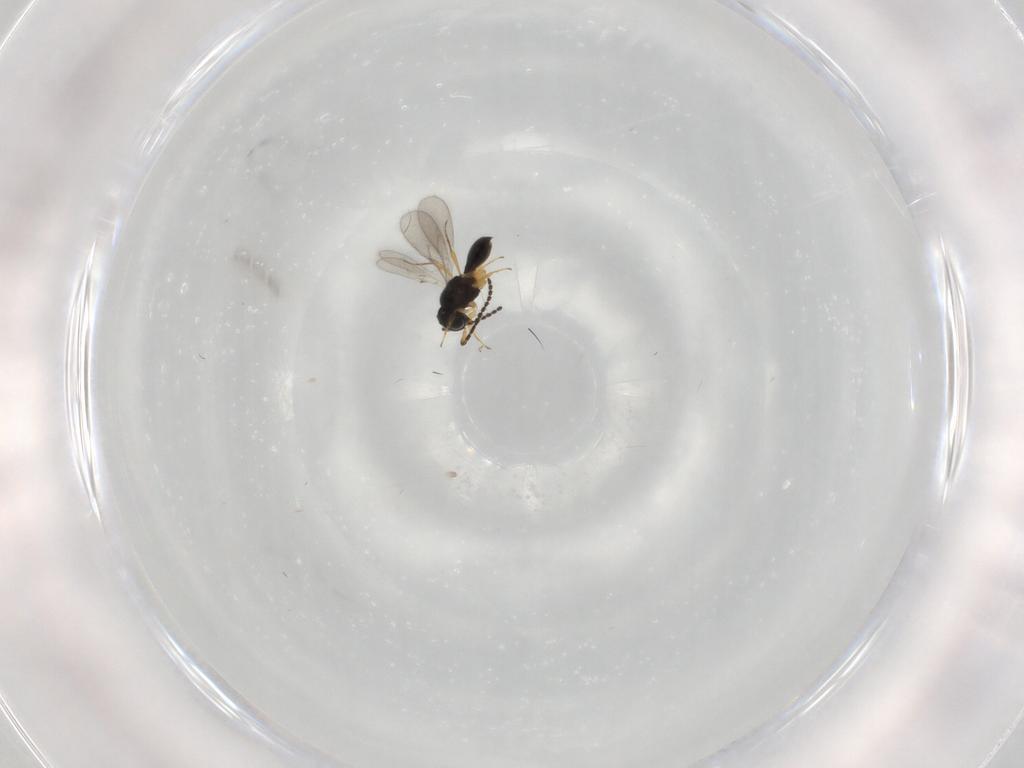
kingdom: Animalia
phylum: Arthropoda
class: Insecta
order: Hymenoptera
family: Scelionidae
